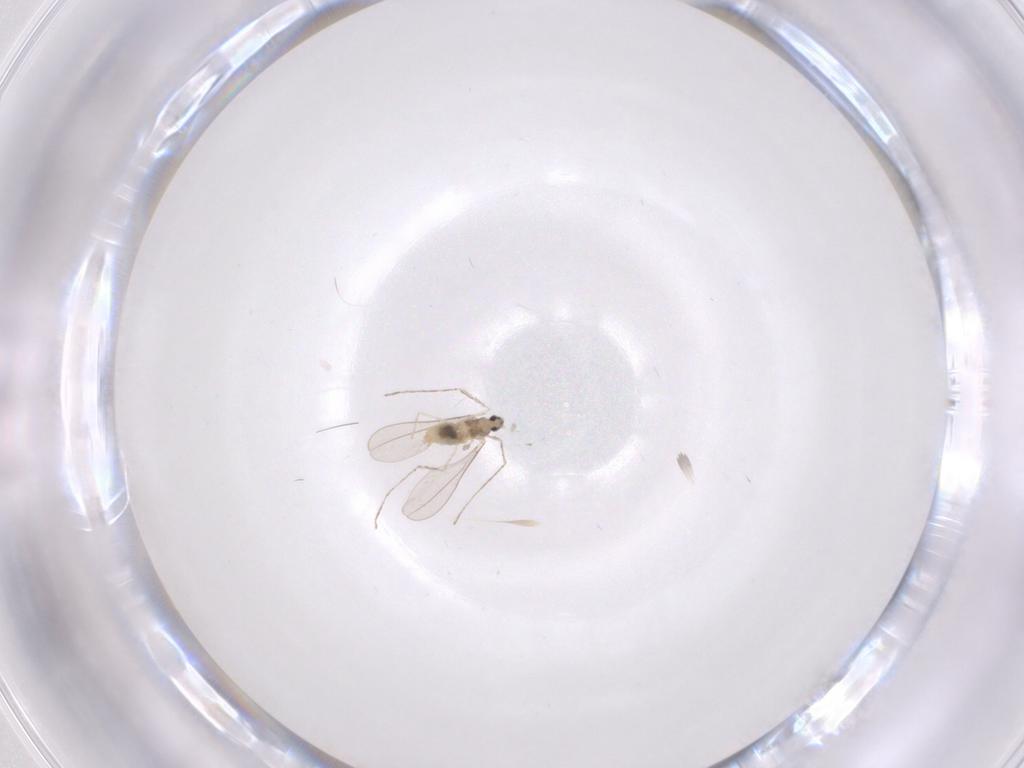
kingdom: Animalia
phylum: Arthropoda
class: Insecta
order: Diptera
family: Cecidomyiidae
